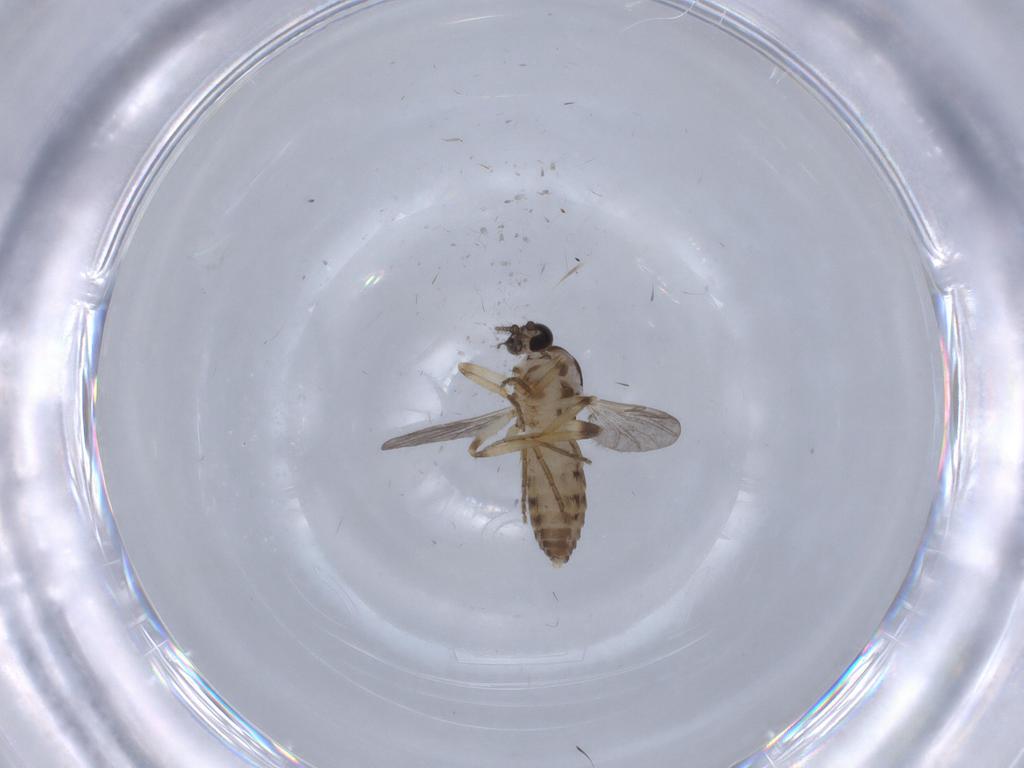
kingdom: Animalia
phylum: Arthropoda
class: Insecta
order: Diptera
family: Ceratopogonidae
